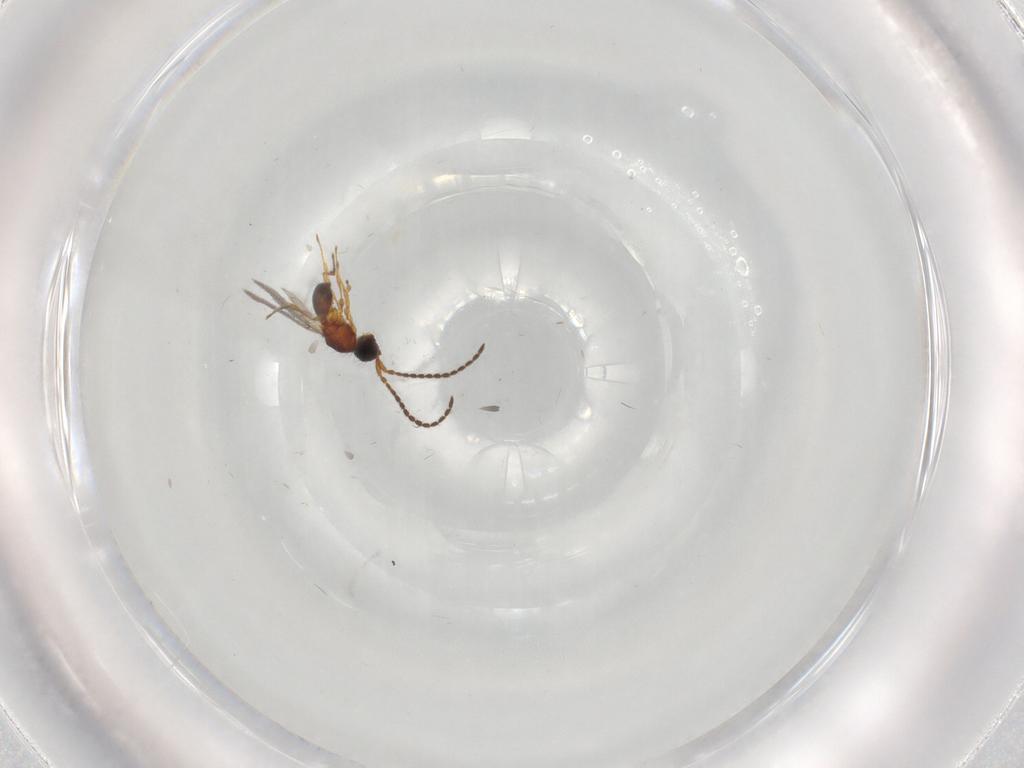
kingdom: Animalia
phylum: Arthropoda
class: Insecta
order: Hymenoptera
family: Diapriidae
